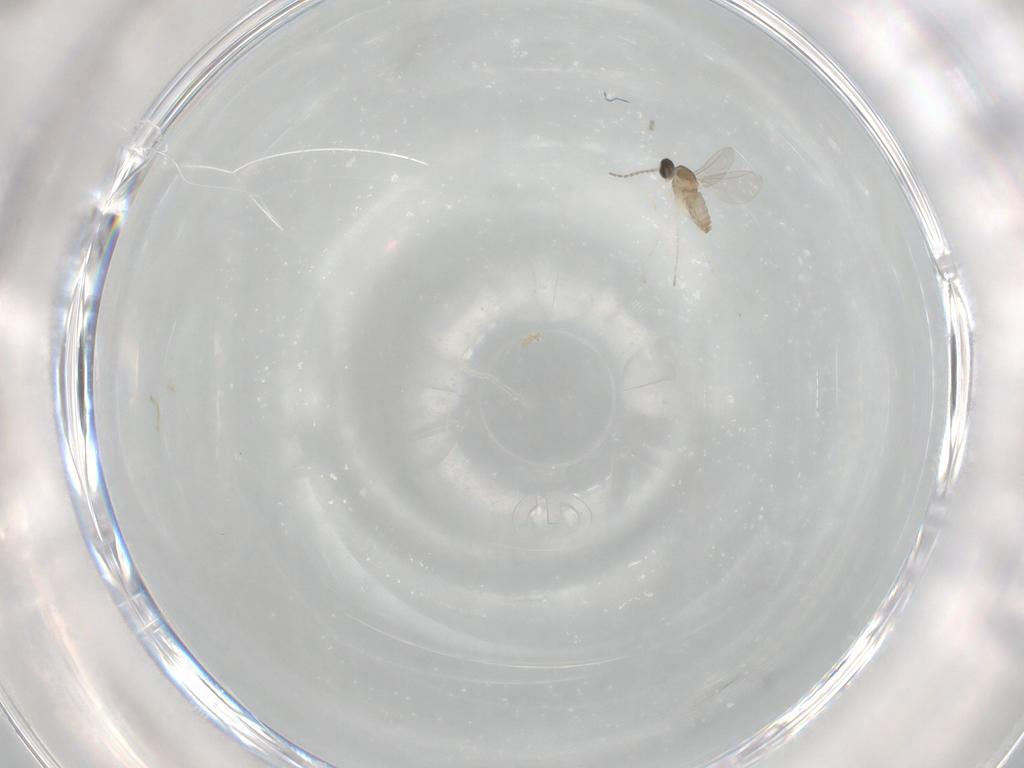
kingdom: Animalia
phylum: Arthropoda
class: Insecta
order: Diptera
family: Cecidomyiidae
